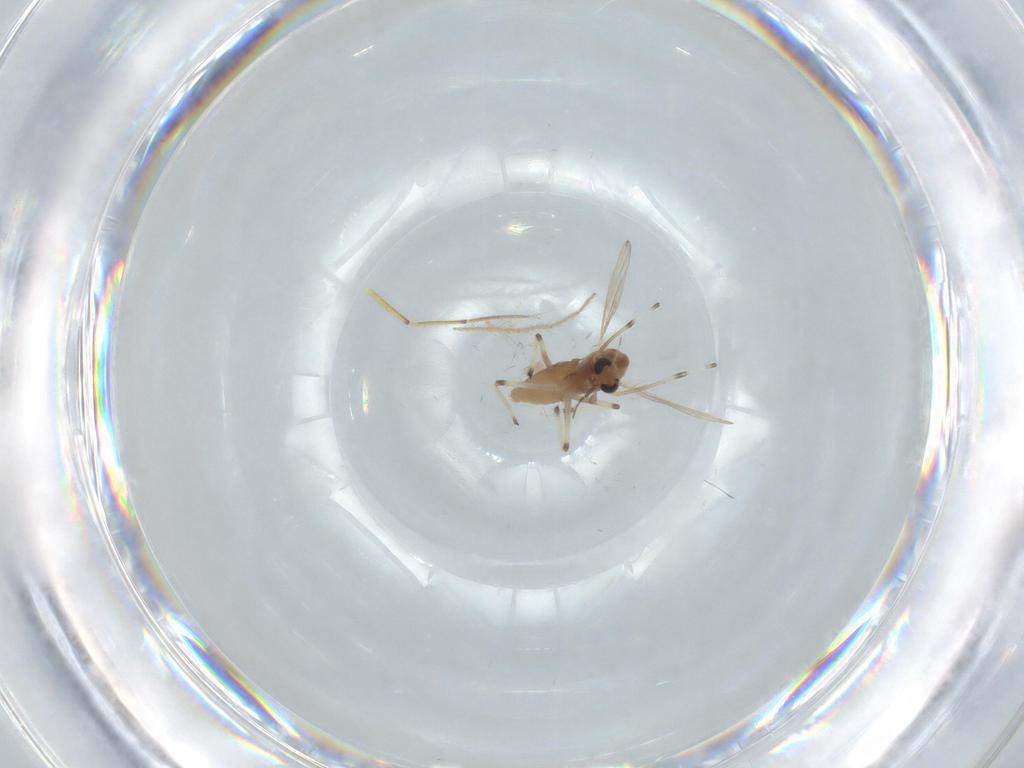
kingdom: Animalia
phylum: Arthropoda
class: Insecta
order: Diptera
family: Chironomidae
